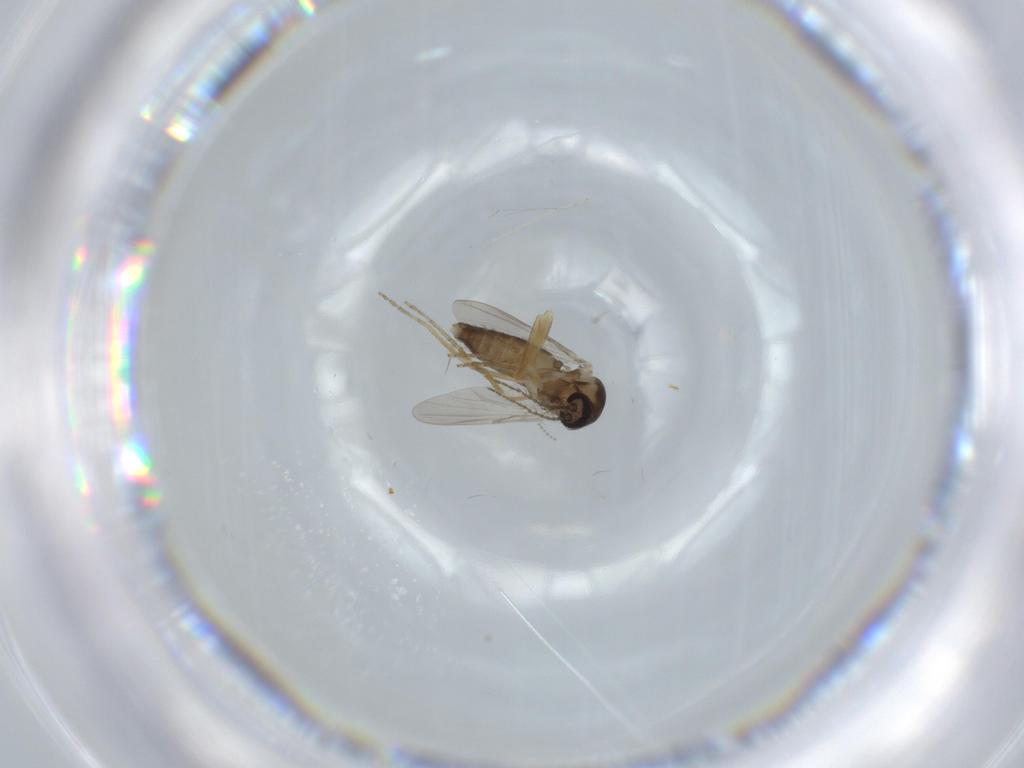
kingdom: Animalia
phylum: Arthropoda
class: Insecta
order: Diptera
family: Ceratopogonidae
